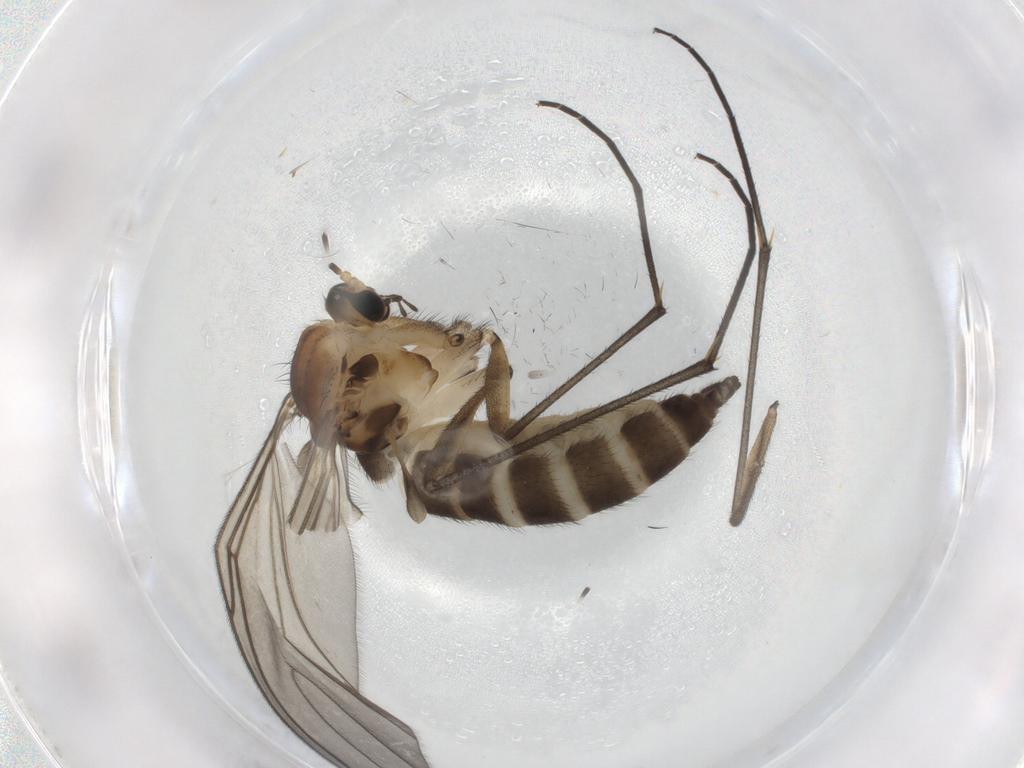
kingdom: Animalia
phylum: Arthropoda
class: Insecta
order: Diptera
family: Sciaridae
